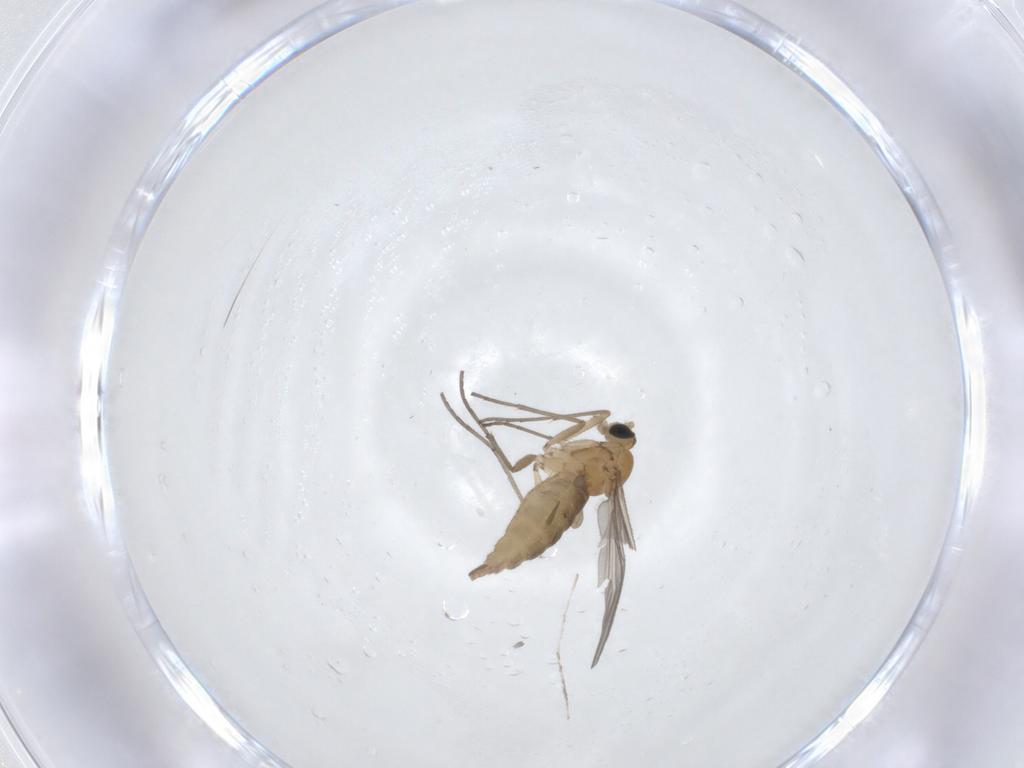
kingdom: Animalia
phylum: Arthropoda
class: Insecta
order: Diptera
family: Sciaridae
